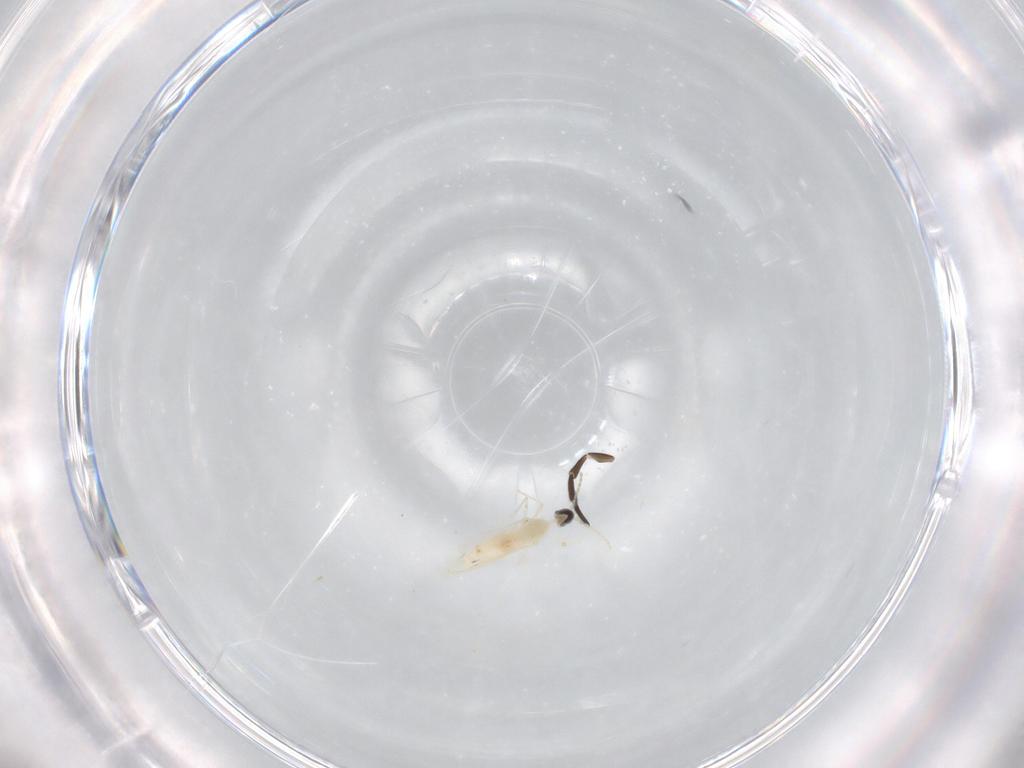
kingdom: Animalia
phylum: Arthropoda
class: Insecta
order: Diptera
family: Cecidomyiidae
